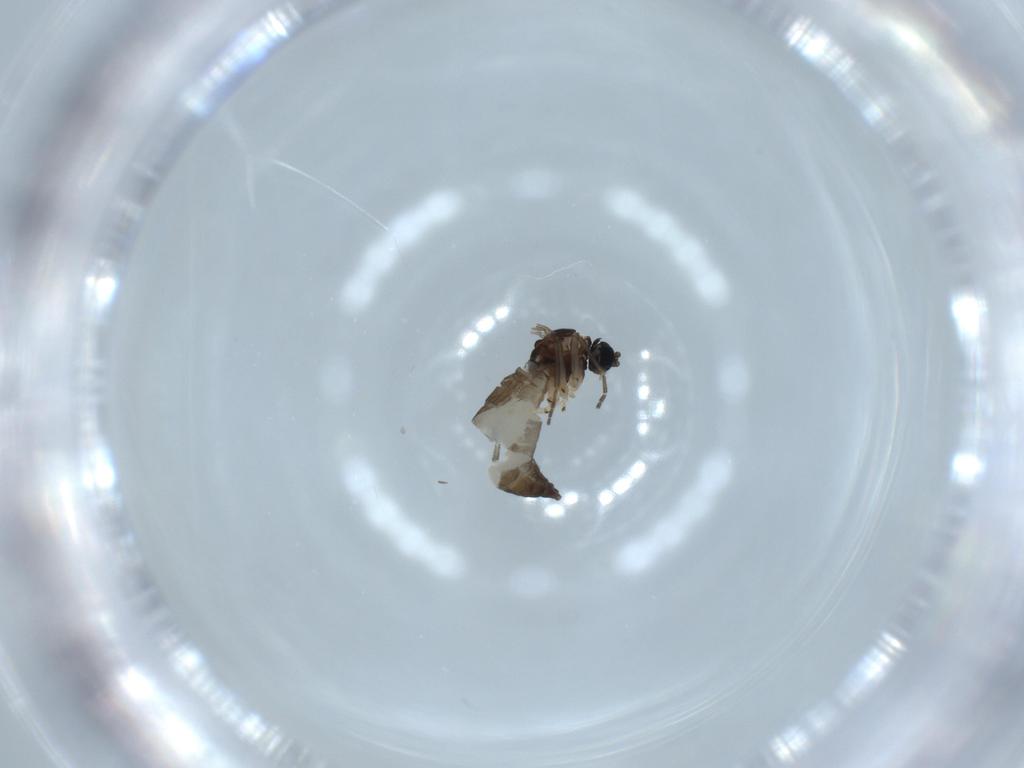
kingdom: Animalia
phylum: Arthropoda
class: Insecta
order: Diptera
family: Sciaridae
